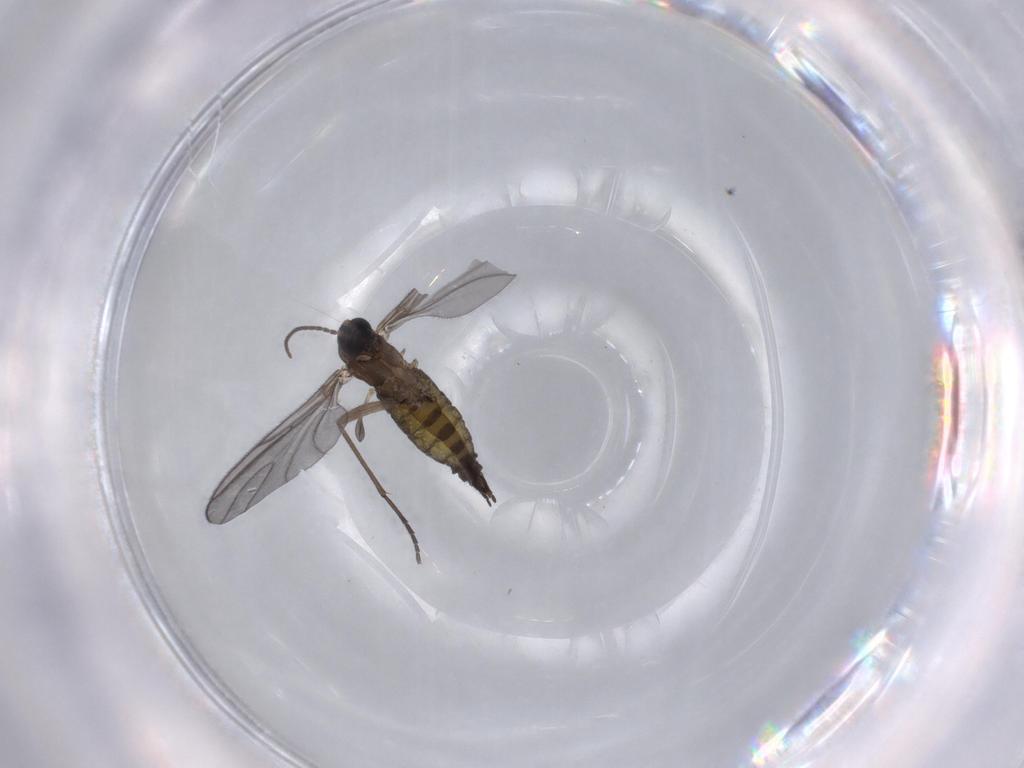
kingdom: Animalia
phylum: Arthropoda
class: Insecta
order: Diptera
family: Sciaridae
